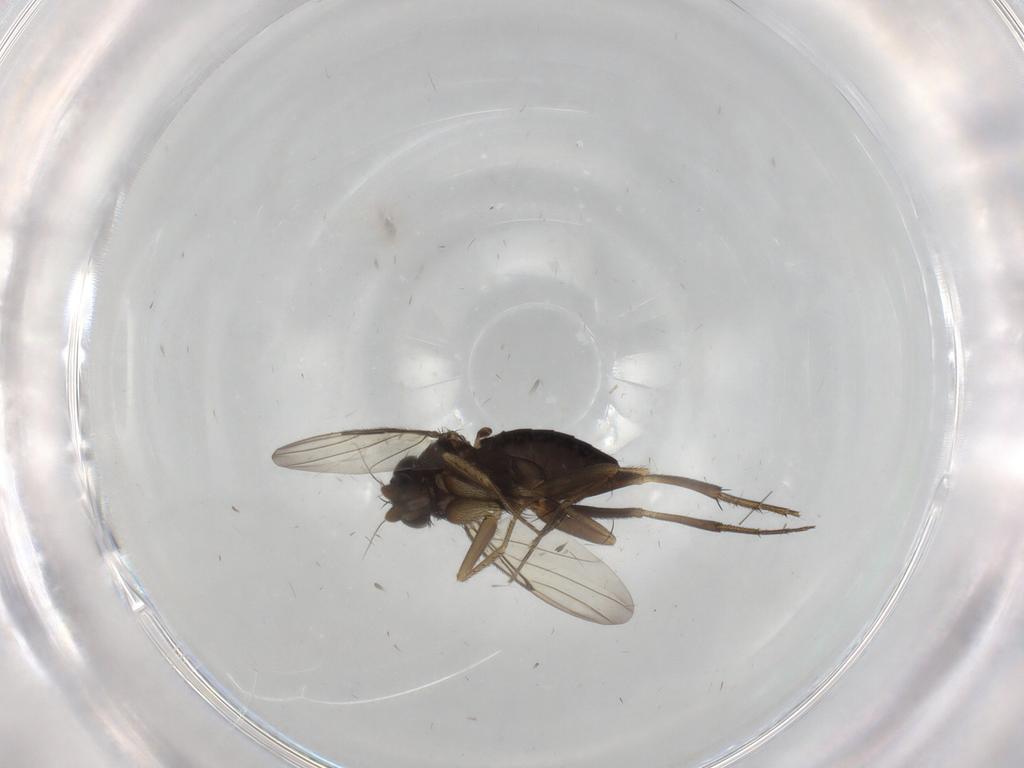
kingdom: Animalia
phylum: Arthropoda
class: Insecta
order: Diptera
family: Phoridae
